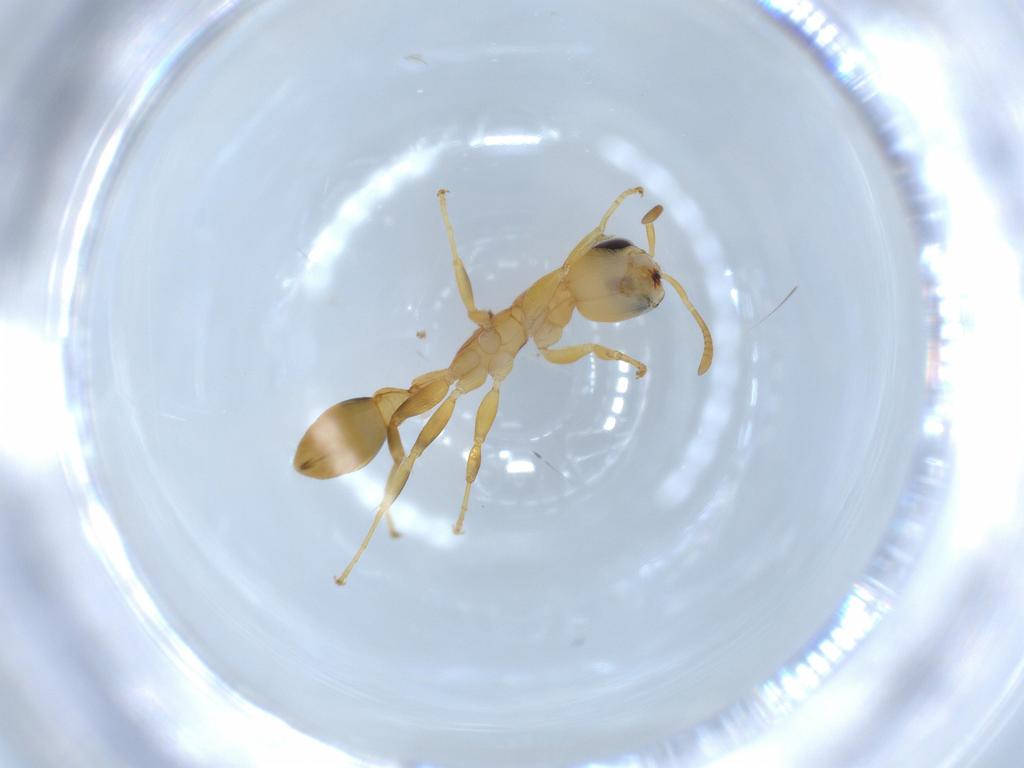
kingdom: Animalia
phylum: Arthropoda
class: Insecta
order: Hymenoptera
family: Formicidae
